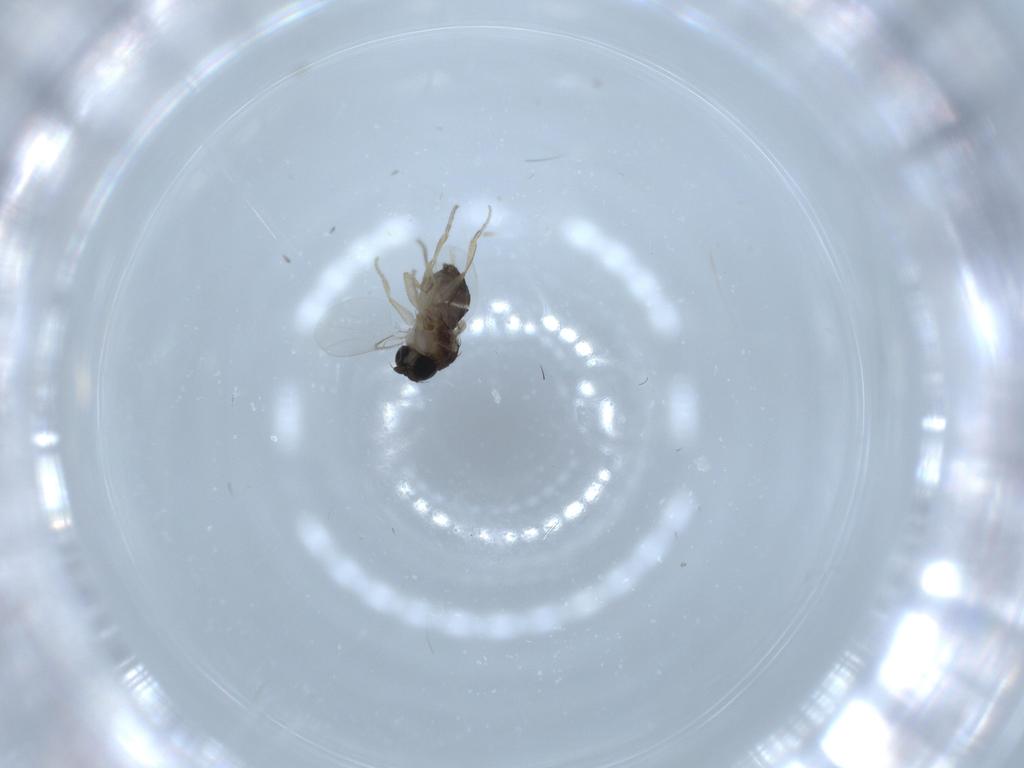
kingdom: Animalia
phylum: Arthropoda
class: Insecta
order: Diptera
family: Phoridae
